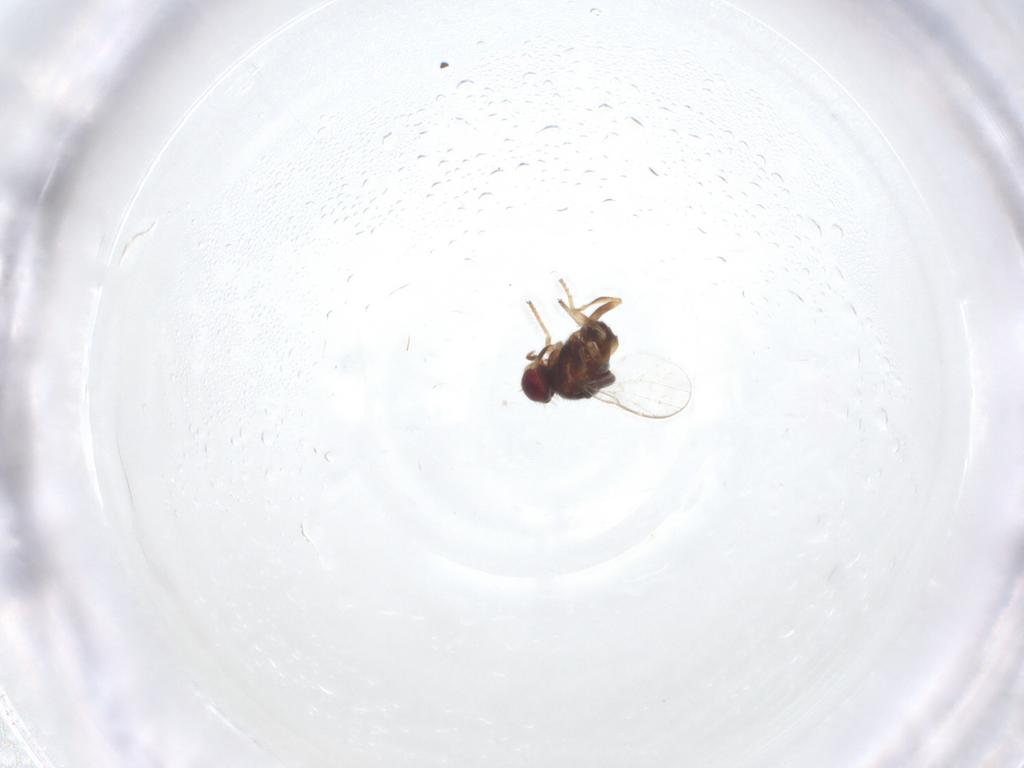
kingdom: Animalia
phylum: Arthropoda
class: Insecta
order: Diptera
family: Chloropidae
